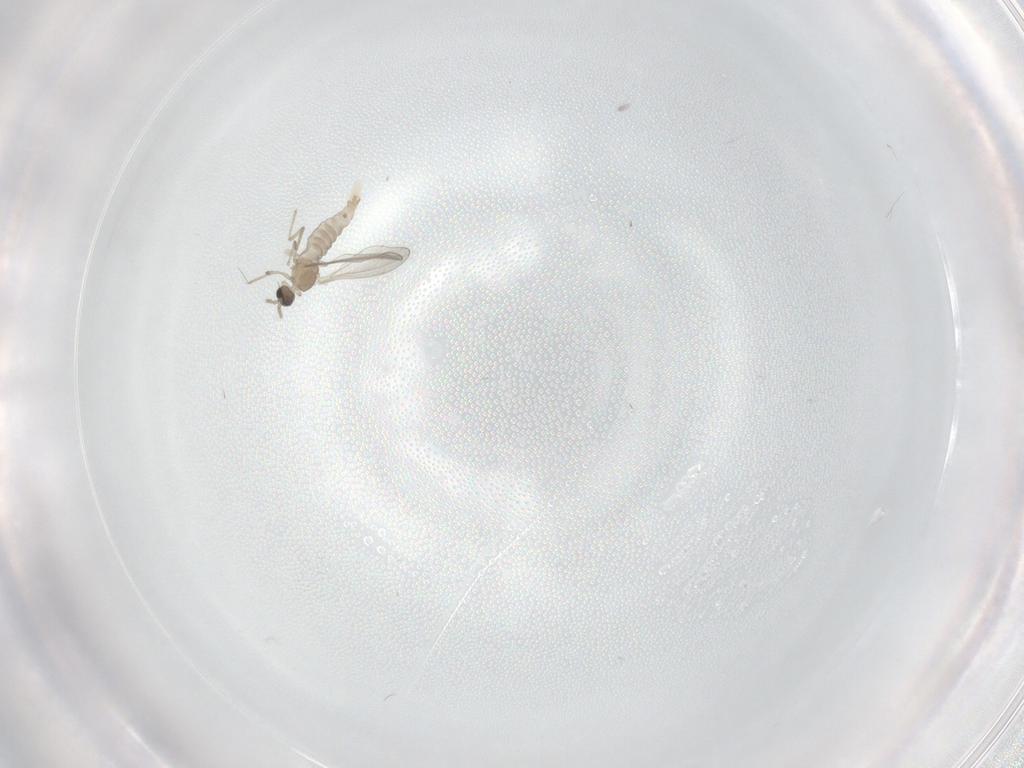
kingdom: Animalia
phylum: Arthropoda
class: Insecta
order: Diptera
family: Cecidomyiidae
